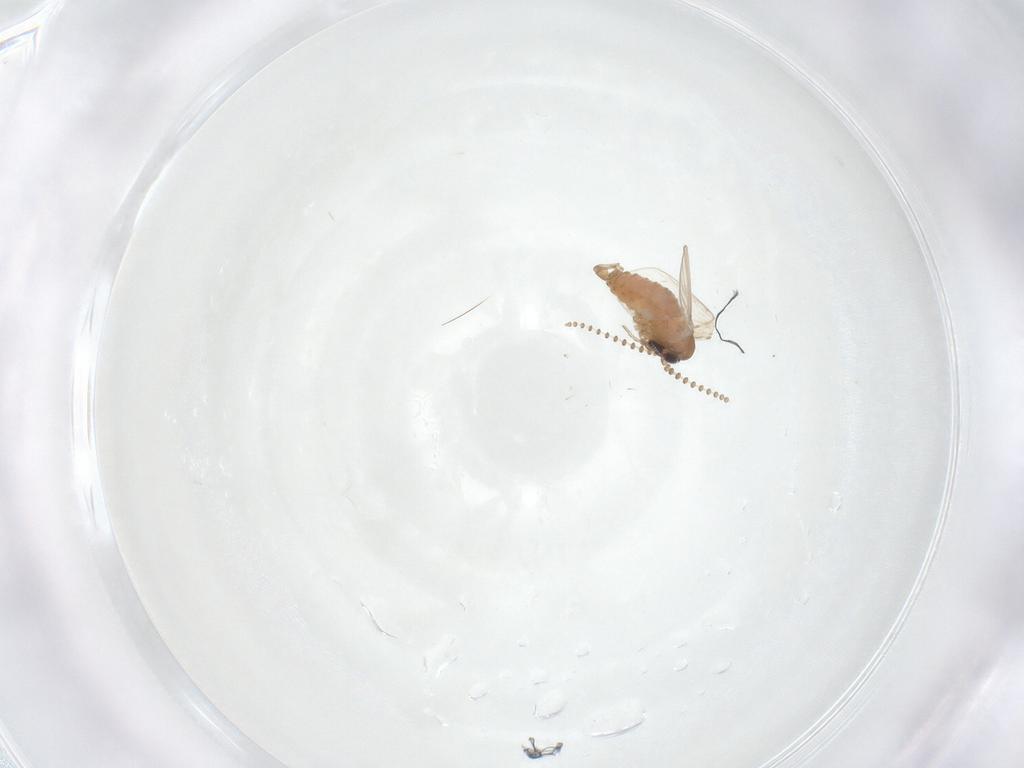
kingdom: Animalia
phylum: Arthropoda
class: Insecta
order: Diptera
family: Psychodidae
